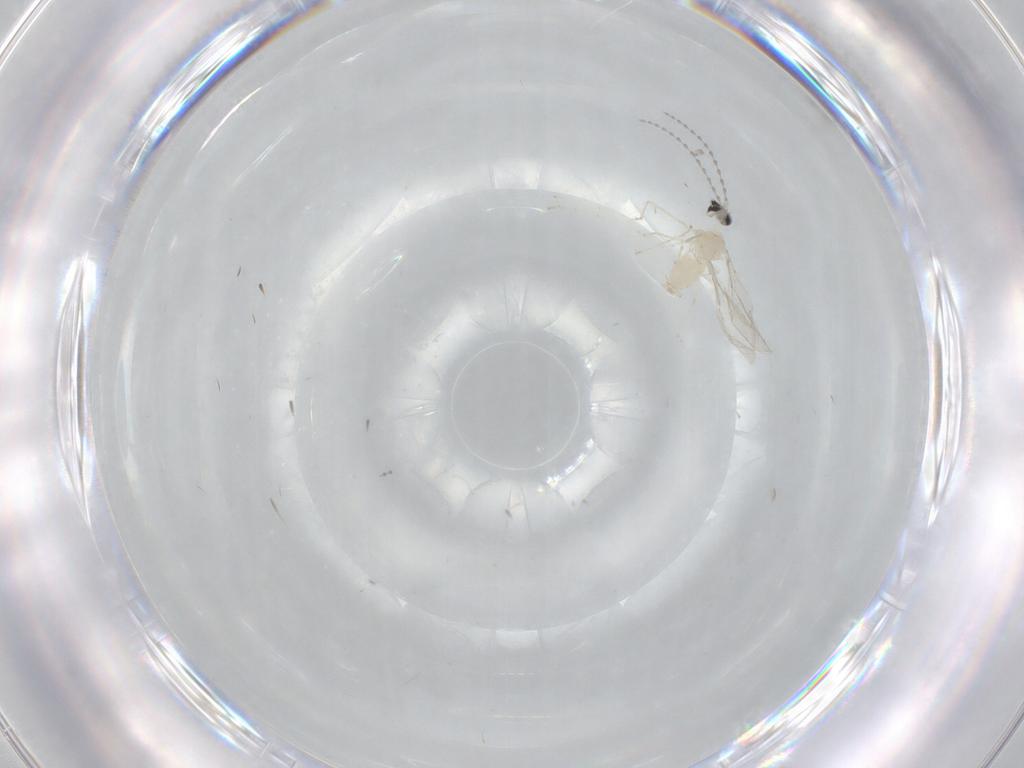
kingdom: Animalia
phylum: Arthropoda
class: Insecta
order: Diptera
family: Cecidomyiidae
